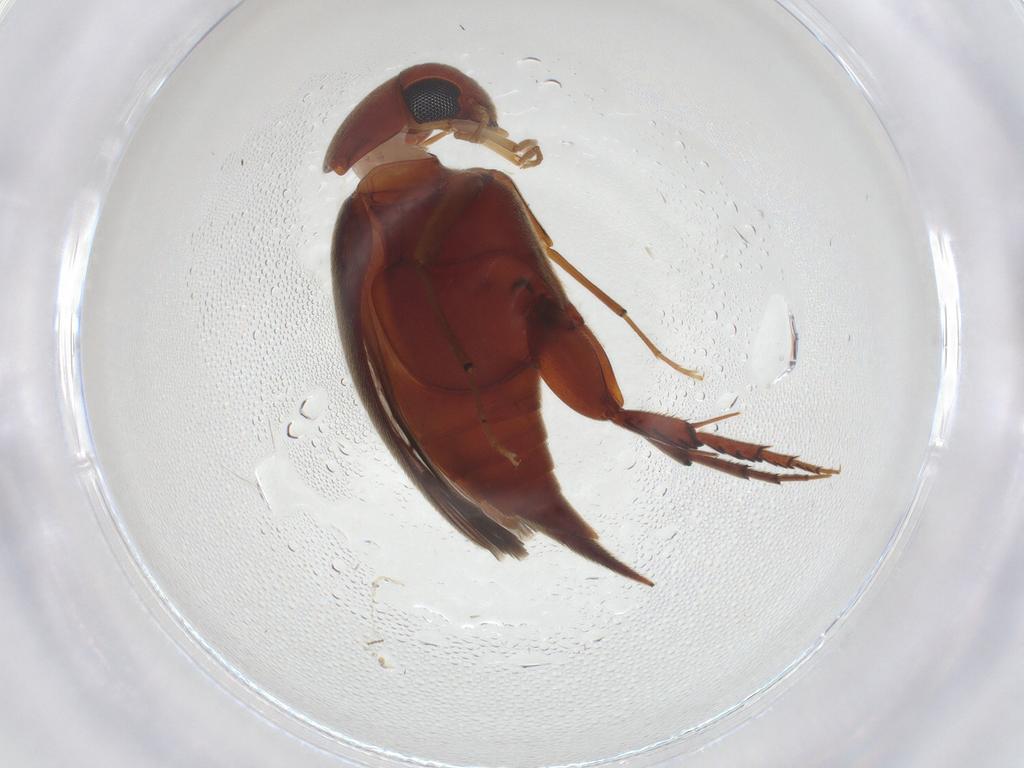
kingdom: Animalia
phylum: Arthropoda
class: Insecta
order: Coleoptera
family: Mordellidae
